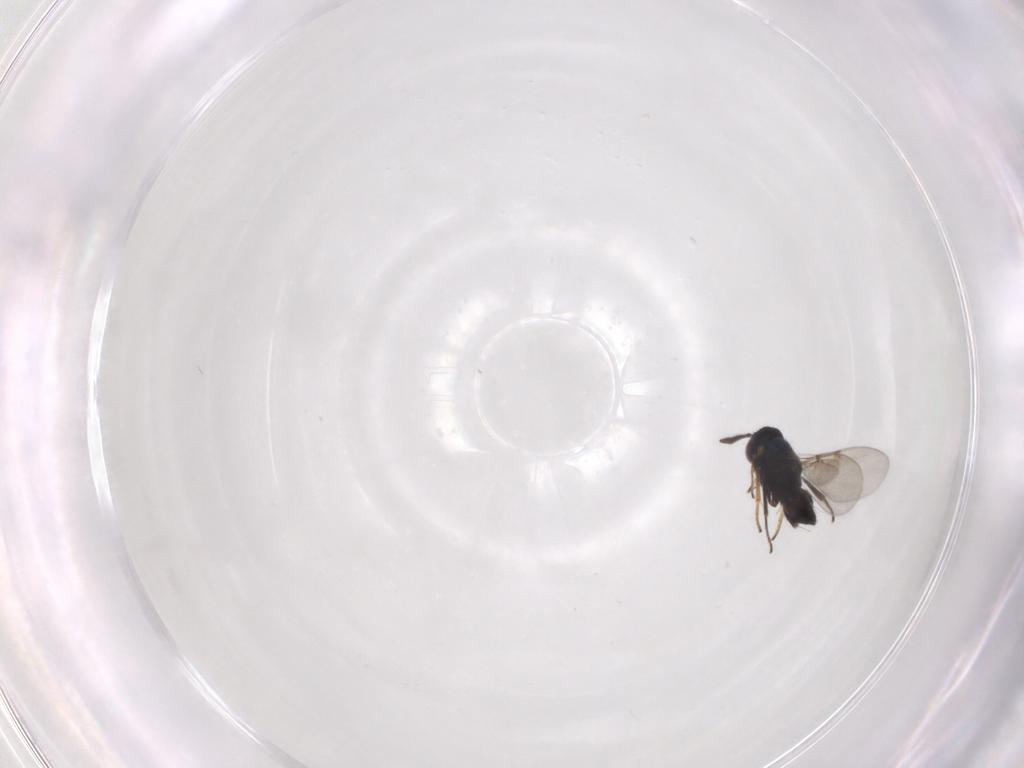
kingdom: Animalia
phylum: Arthropoda
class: Insecta
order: Hymenoptera
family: Encyrtidae
